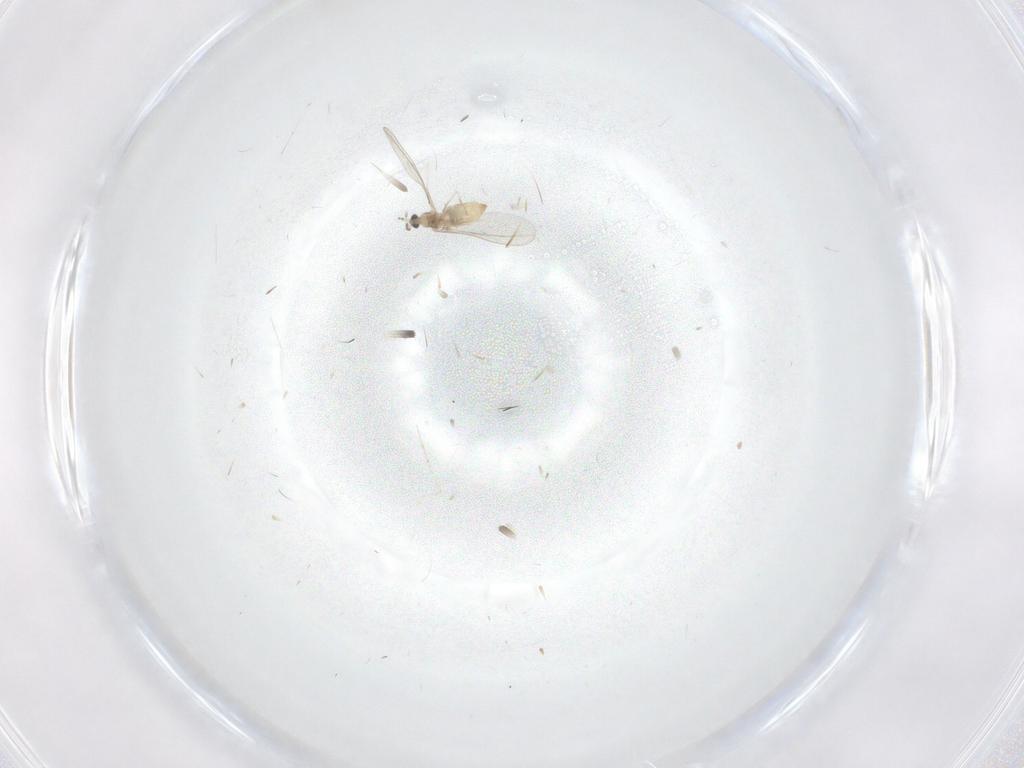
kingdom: Animalia
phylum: Arthropoda
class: Insecta
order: Diptera
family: Cecidomyiidae
